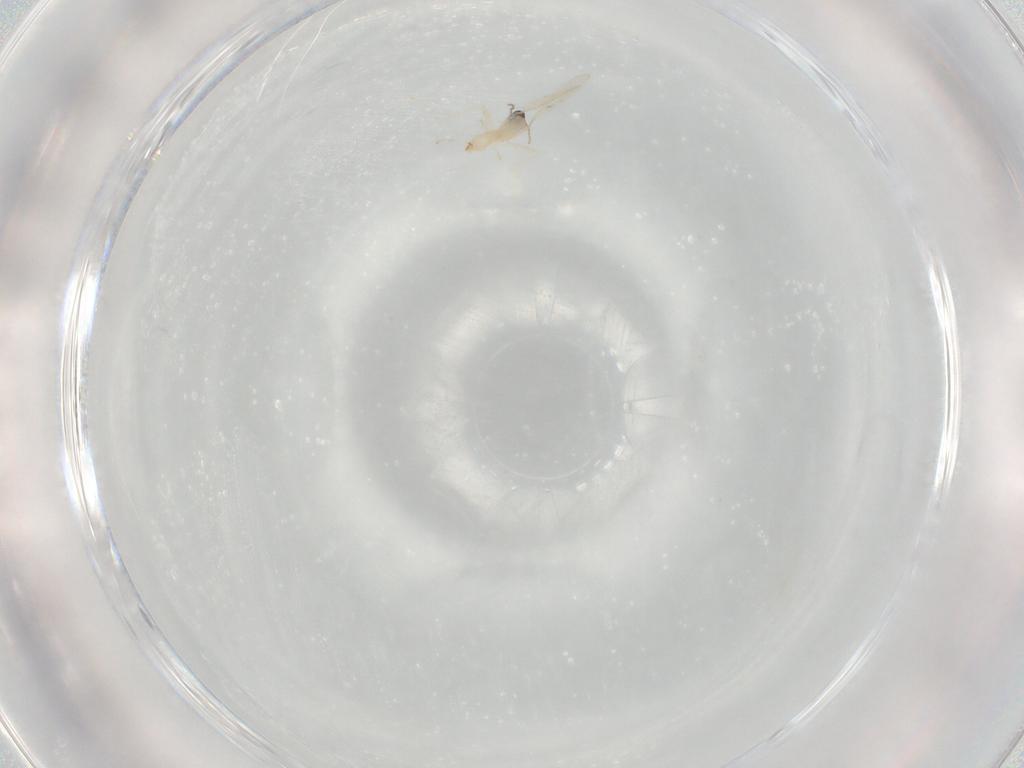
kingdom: Animalia
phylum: Arthropoda
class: Insecta
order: Diptera
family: Cecidomyiidae
